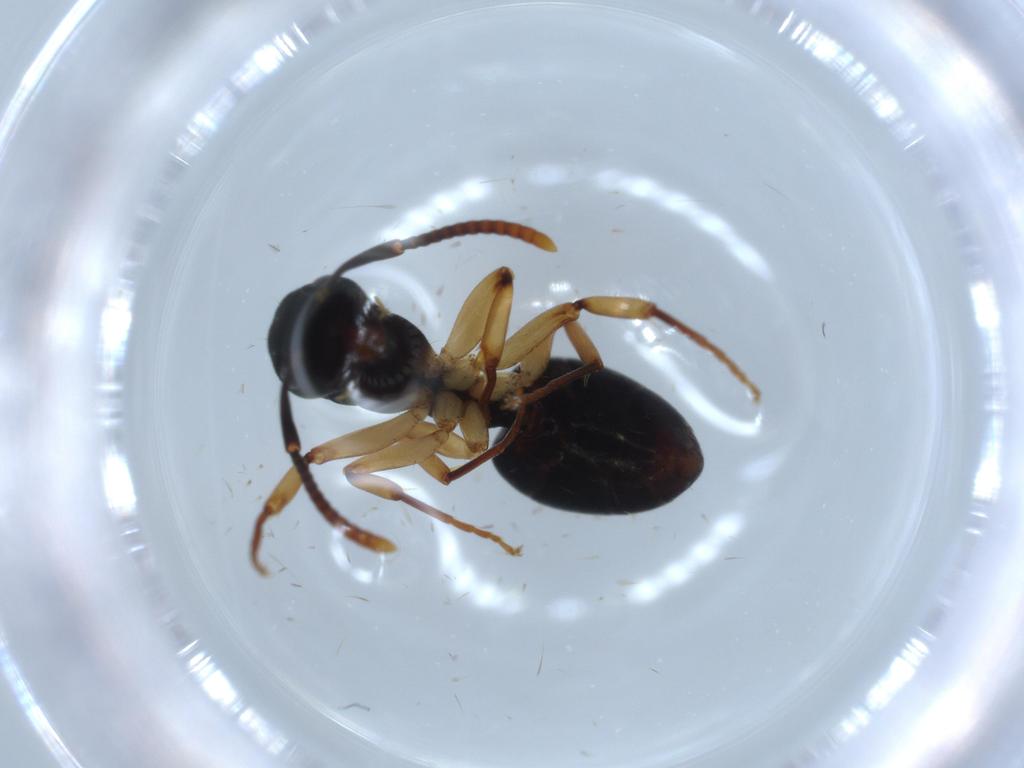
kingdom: Animalia
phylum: Arthropoda
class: Insecta
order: Hymenoptera
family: Formicidae
